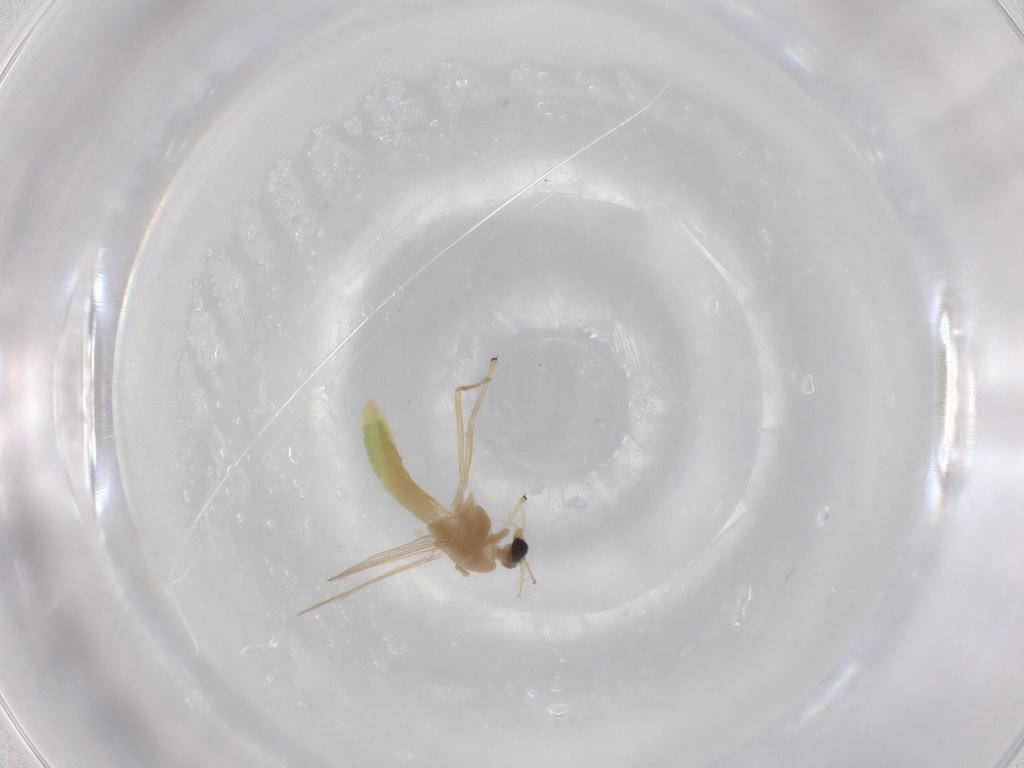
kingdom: Animalia
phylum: Arthropoda
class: Insecta
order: Diptera
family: Chironomidae
